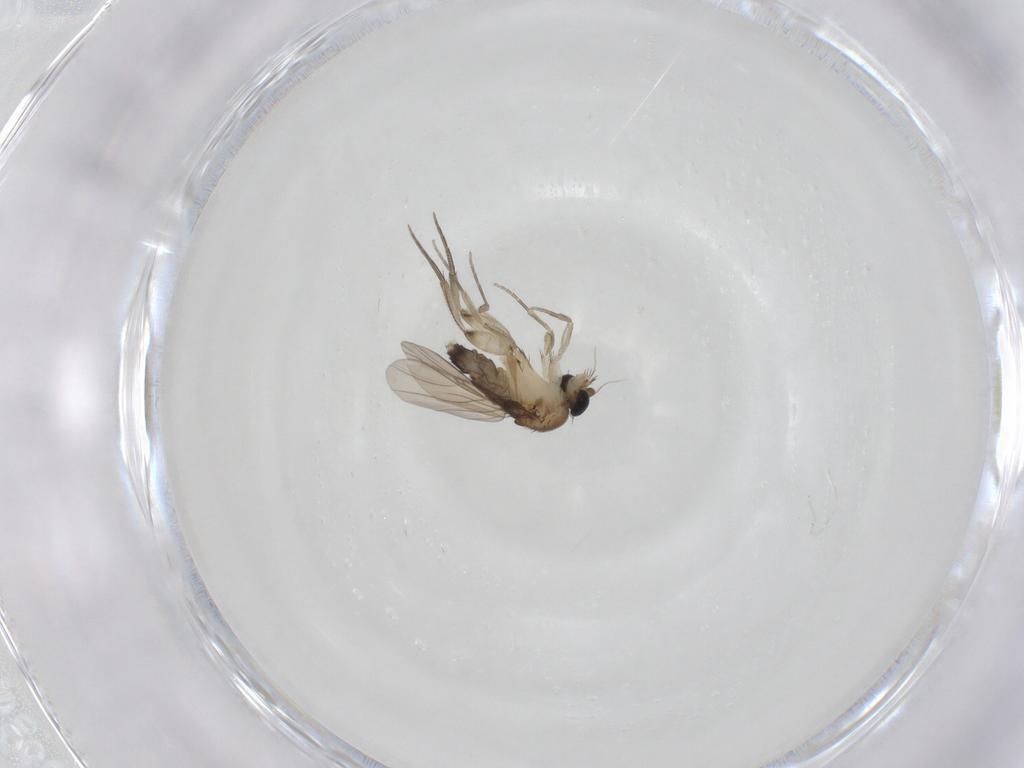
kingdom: Animalia
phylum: Arthropoda
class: Insecta
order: Diptera
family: Phoridae
